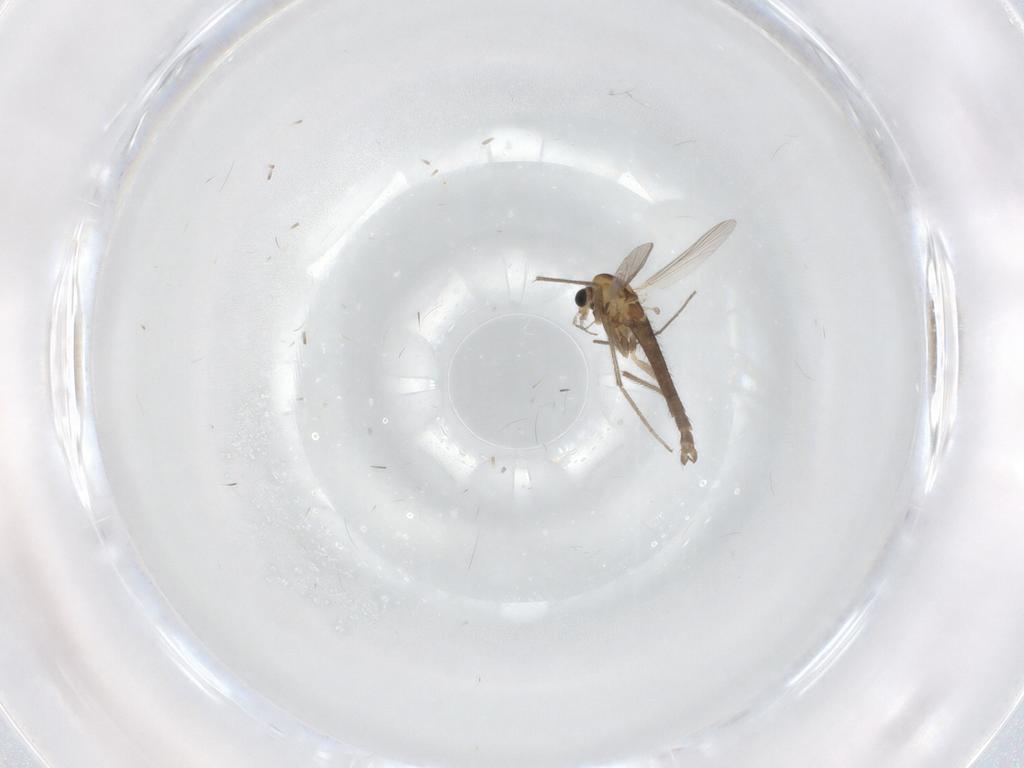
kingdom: Animalia
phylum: Arthropoda
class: Insecta
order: Diptera
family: Chironomidae
